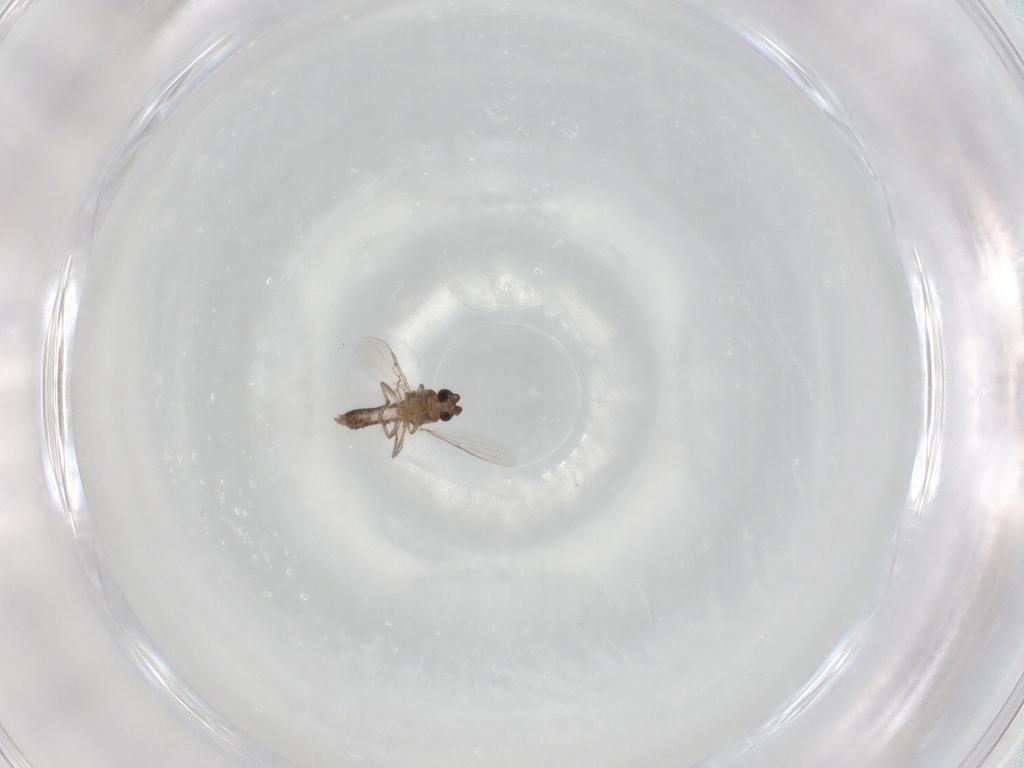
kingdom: Animalia
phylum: Arthropoda
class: Insecta
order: Diptera
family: Ceratopogonidae
